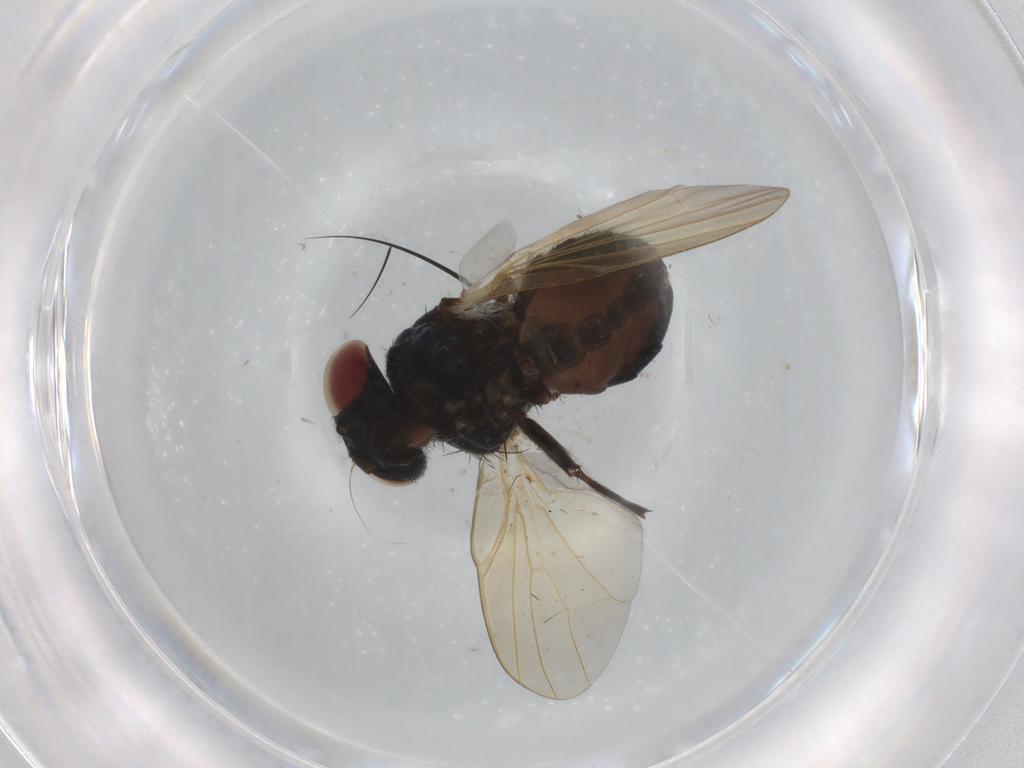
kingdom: Animalia
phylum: Arthropoda
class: Insecta
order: Diptera
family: Lonchaeidae
